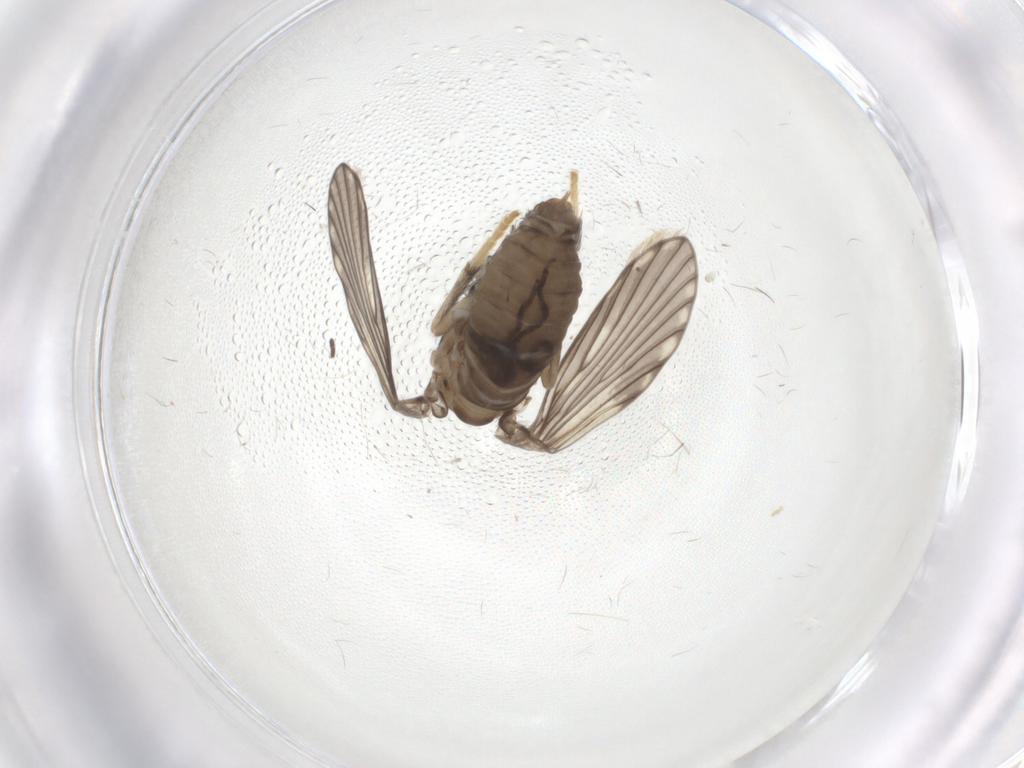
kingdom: Animalia
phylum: Arthropoda
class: Insecta
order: Diptera
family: Psychodidae
